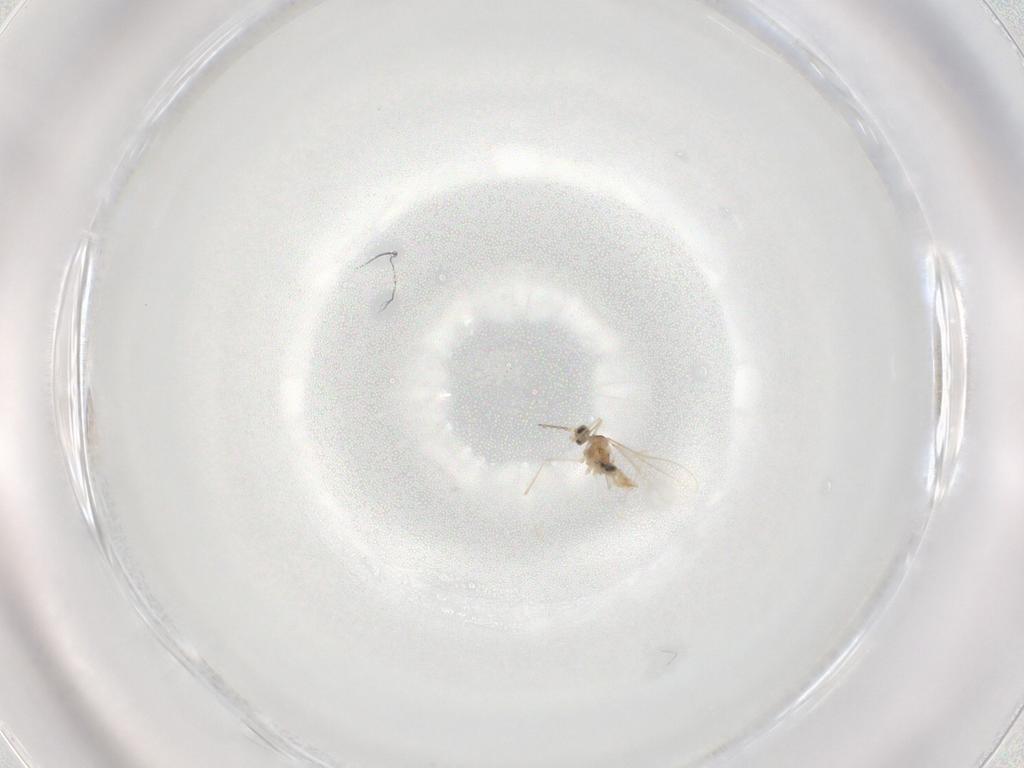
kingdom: Animalia
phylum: Arthropoda
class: Insecta
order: Diptera
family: Cecidomyiidae
